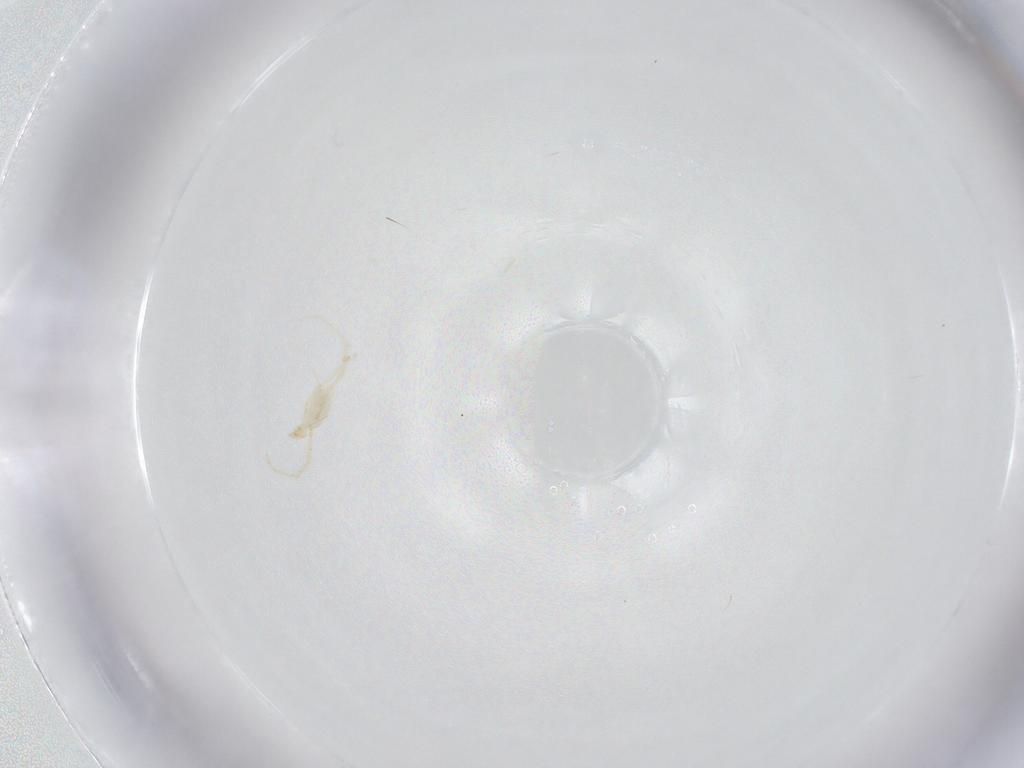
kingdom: Animalia
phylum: Arthropoda
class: Arachnida
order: Trombidiformes
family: Erythraeidae
